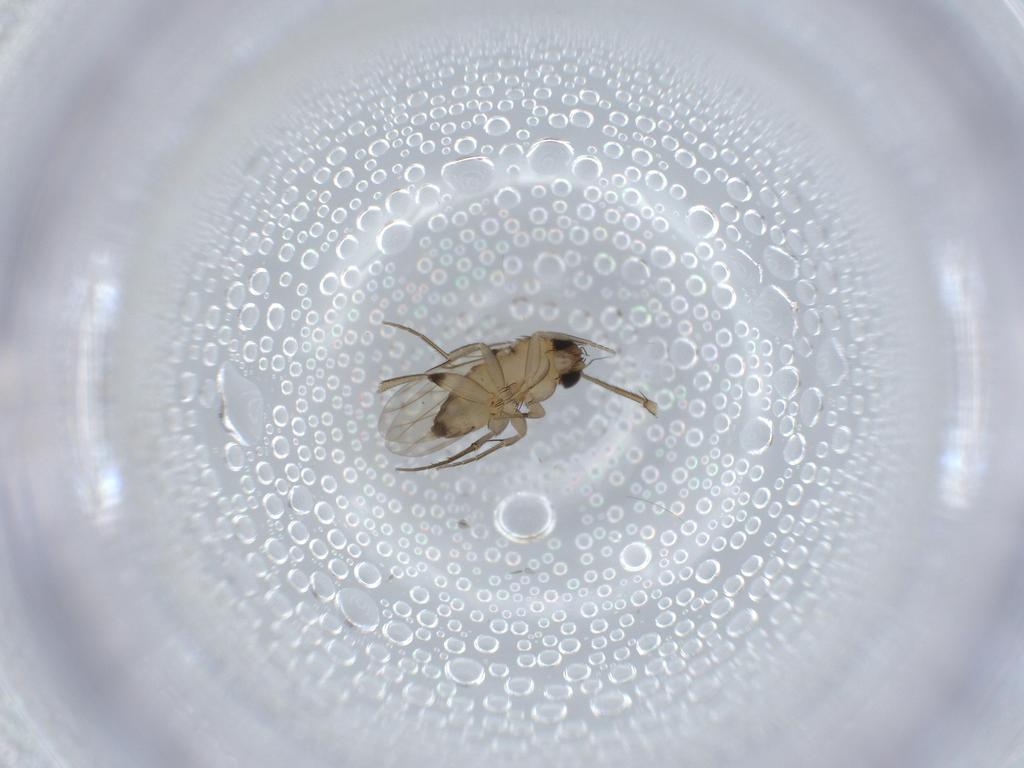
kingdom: Animalia
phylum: Arthropoda
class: Insecta
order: Diptera
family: Phoridae
